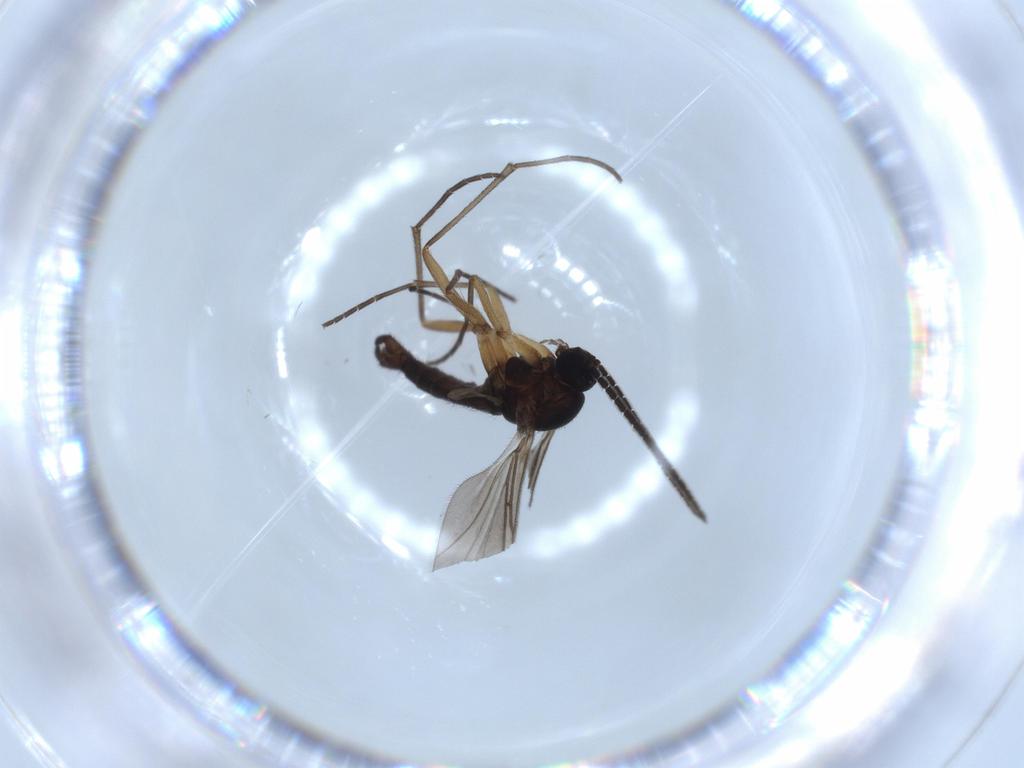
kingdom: Animalia
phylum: Arthropoda
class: Insecta
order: Diptera
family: Sciaridae
